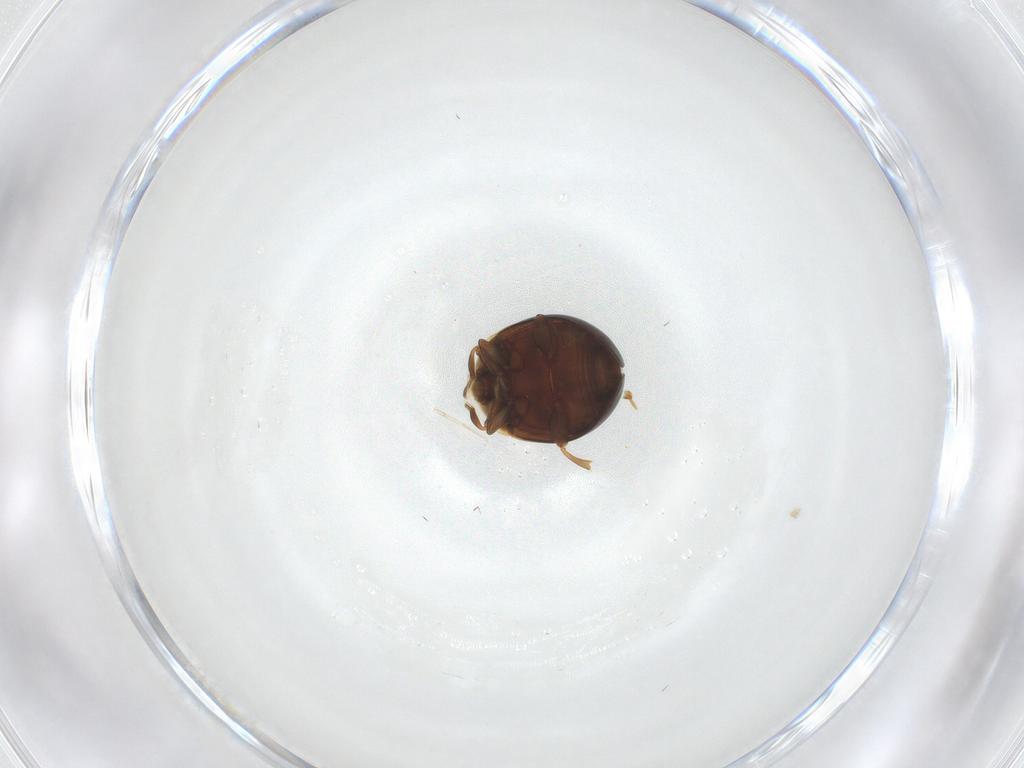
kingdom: Animalia
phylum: Arthropoda
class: Insecta
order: Coleoptera
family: Corylophidae
